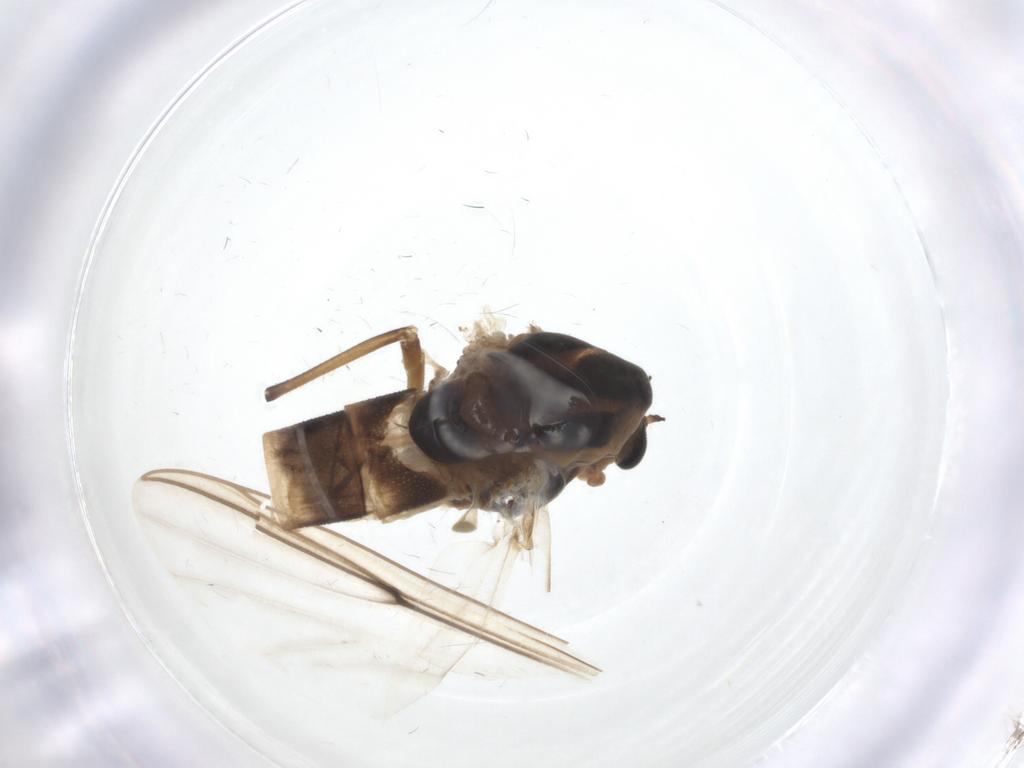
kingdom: Animalia
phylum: Arthropoda
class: Insecta
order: Diptera
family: Chironomidae
